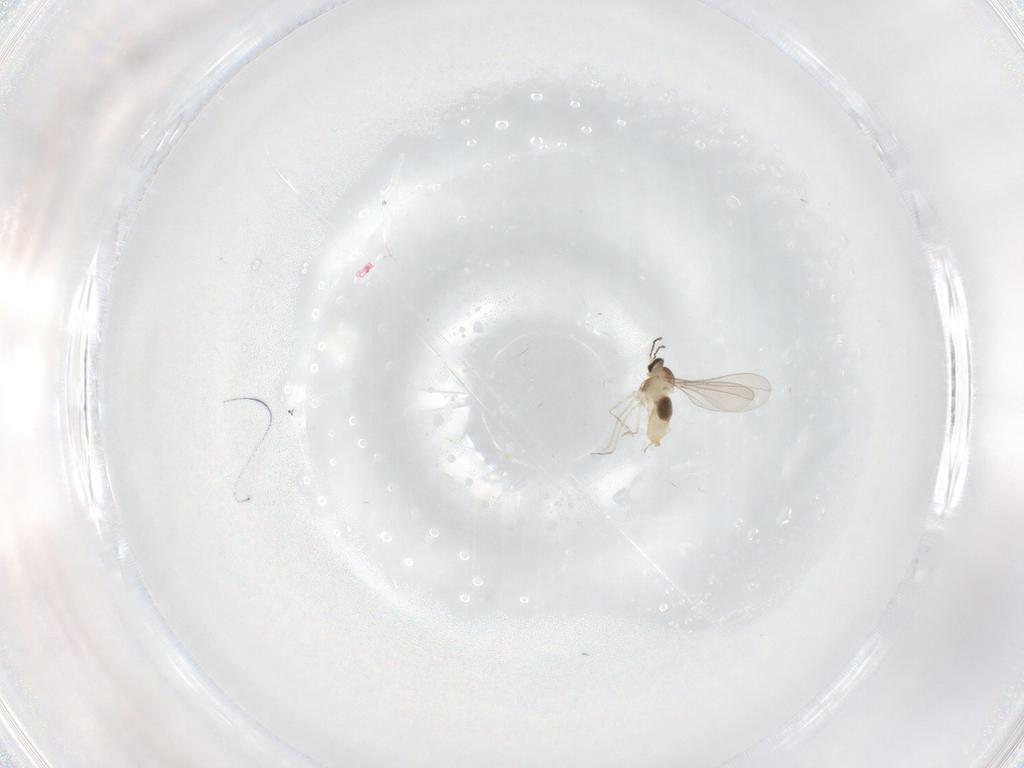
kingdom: Animalia
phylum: Arthropoda
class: Insecta
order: Diptera
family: Cecidomyiidae
